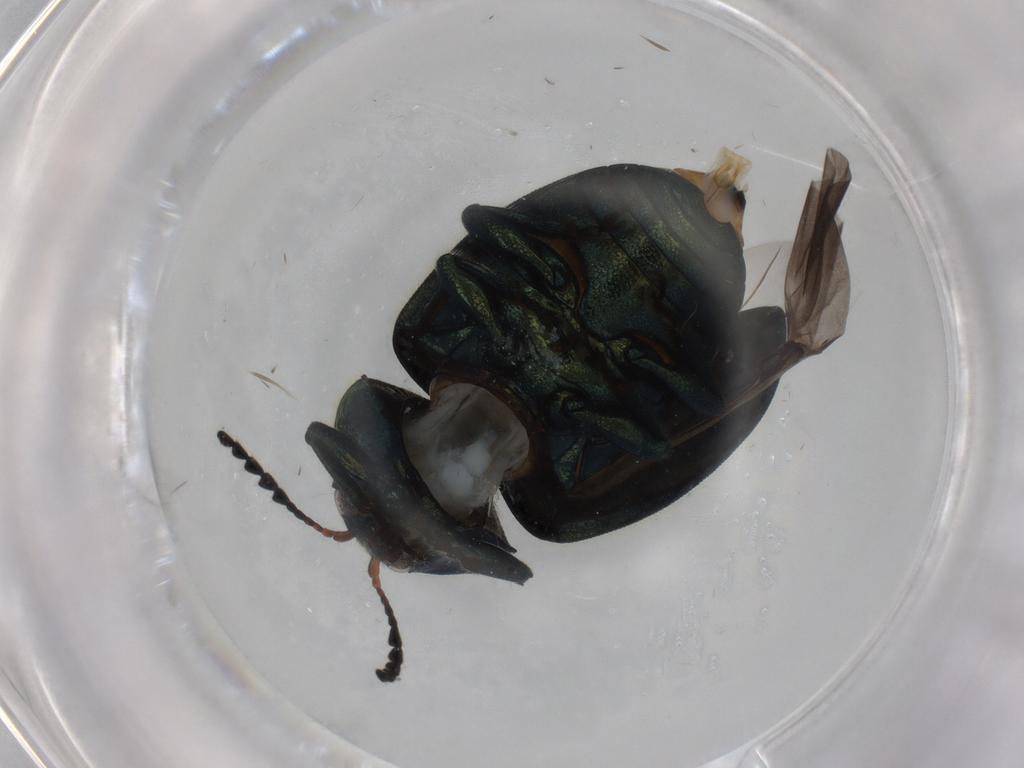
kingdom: Animalia
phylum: Arthropoda
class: Insecta
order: Coleoptera
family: Chrysomelidae
